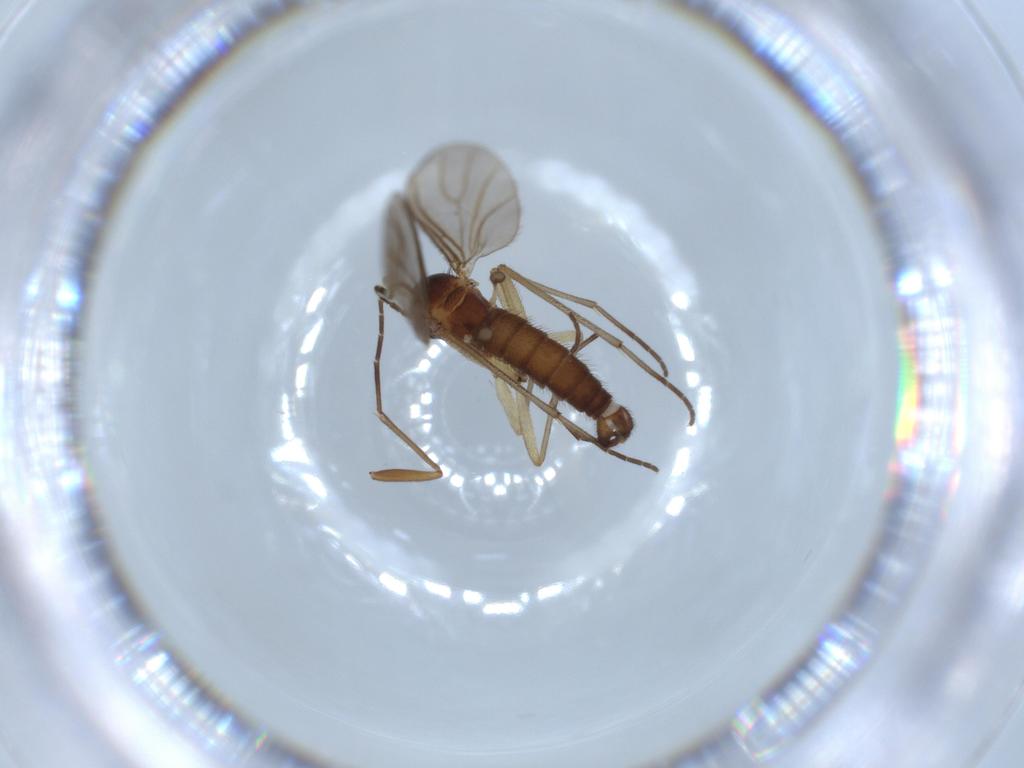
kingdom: Animalia
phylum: Arthropoda
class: Insecta
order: Diptera
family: Sciaridae
